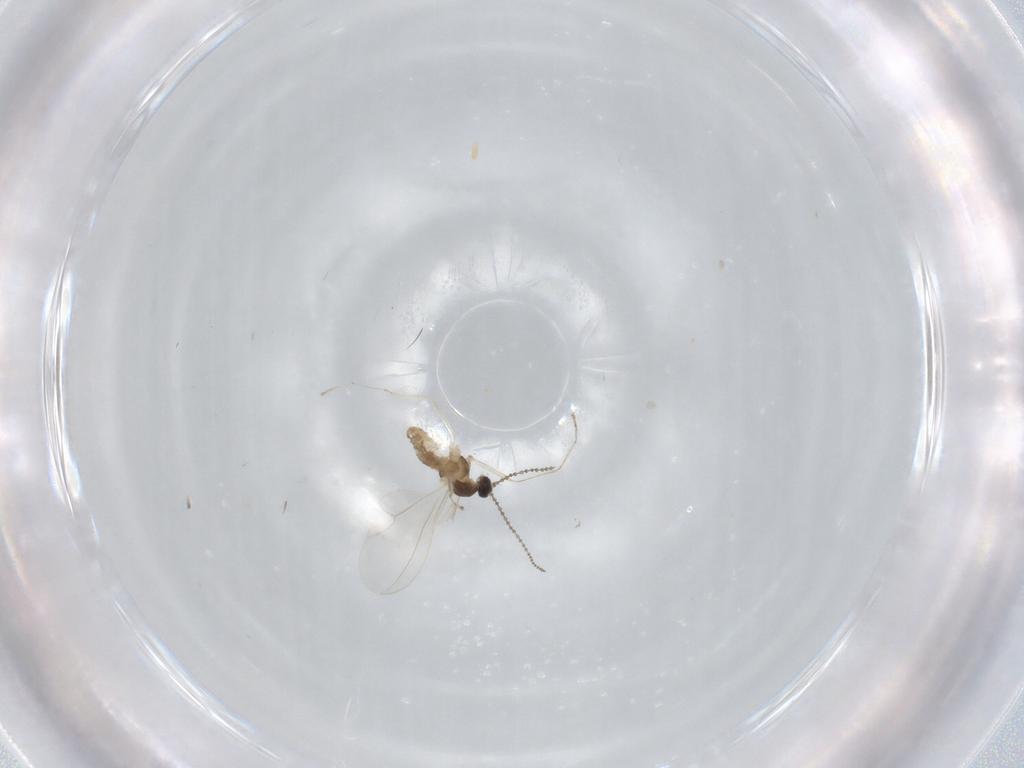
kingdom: Animalia
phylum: Arthropoda
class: Insecta
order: Diptera
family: Cecidomyiidae
